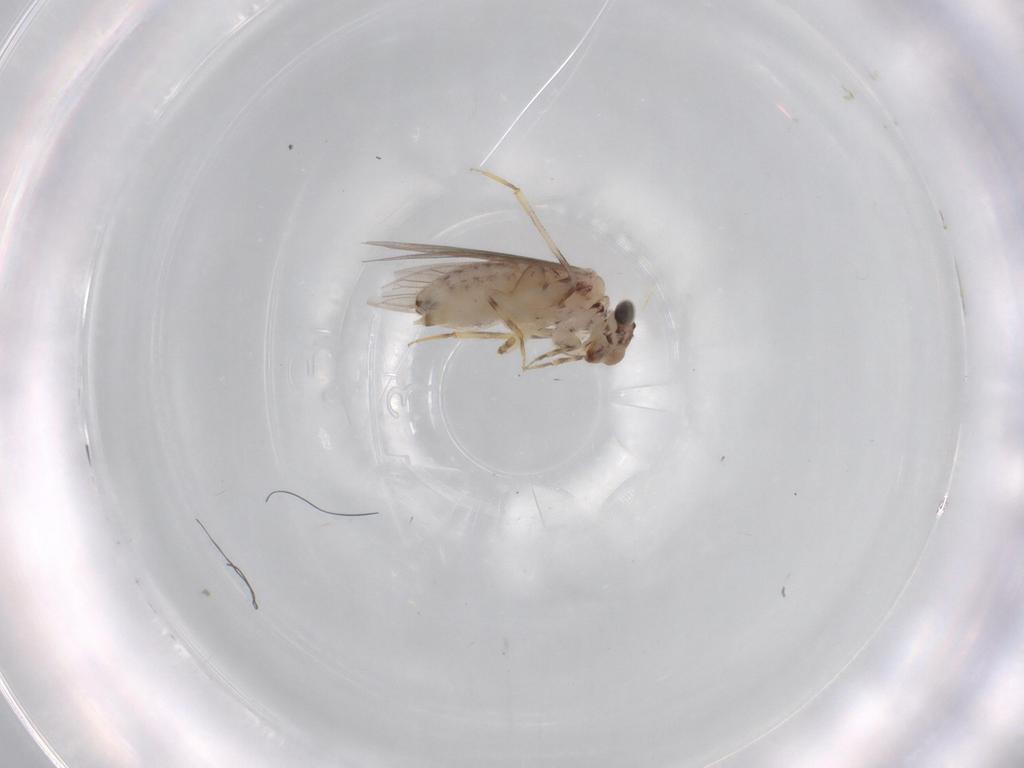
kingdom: Animalia
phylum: Arthropoda
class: Insecta
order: Psocodea
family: Lepidopsocidae
